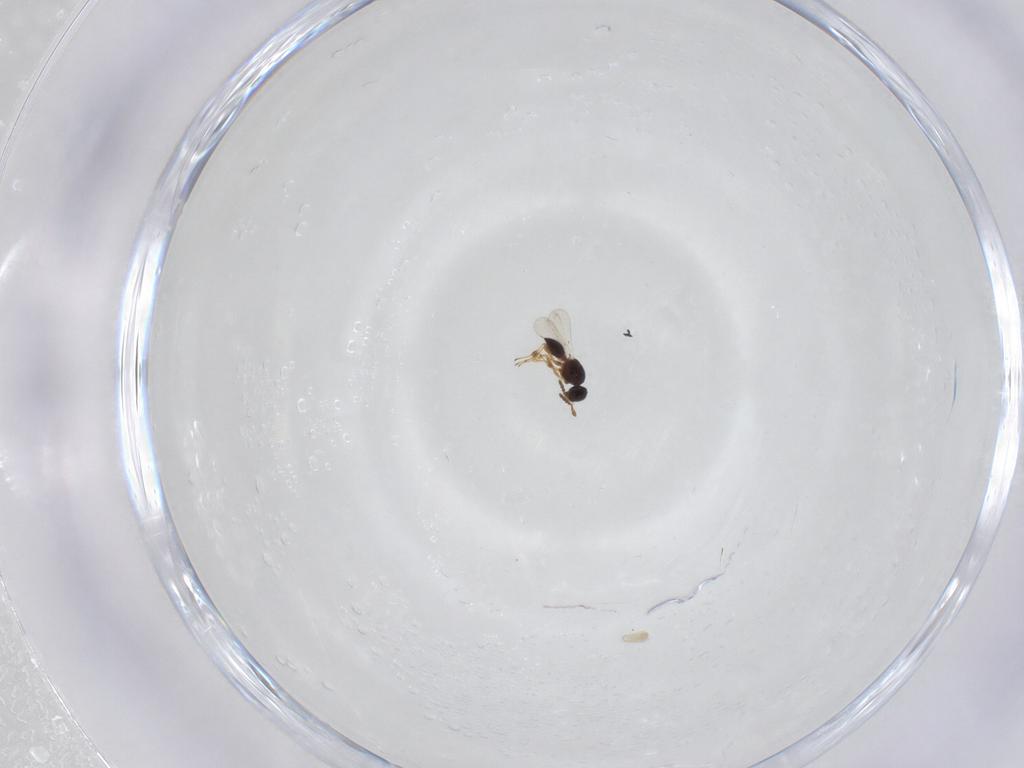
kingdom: Animalia
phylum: Arthropoda
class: Insecta
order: Hymenoptera
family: Platygastridae
